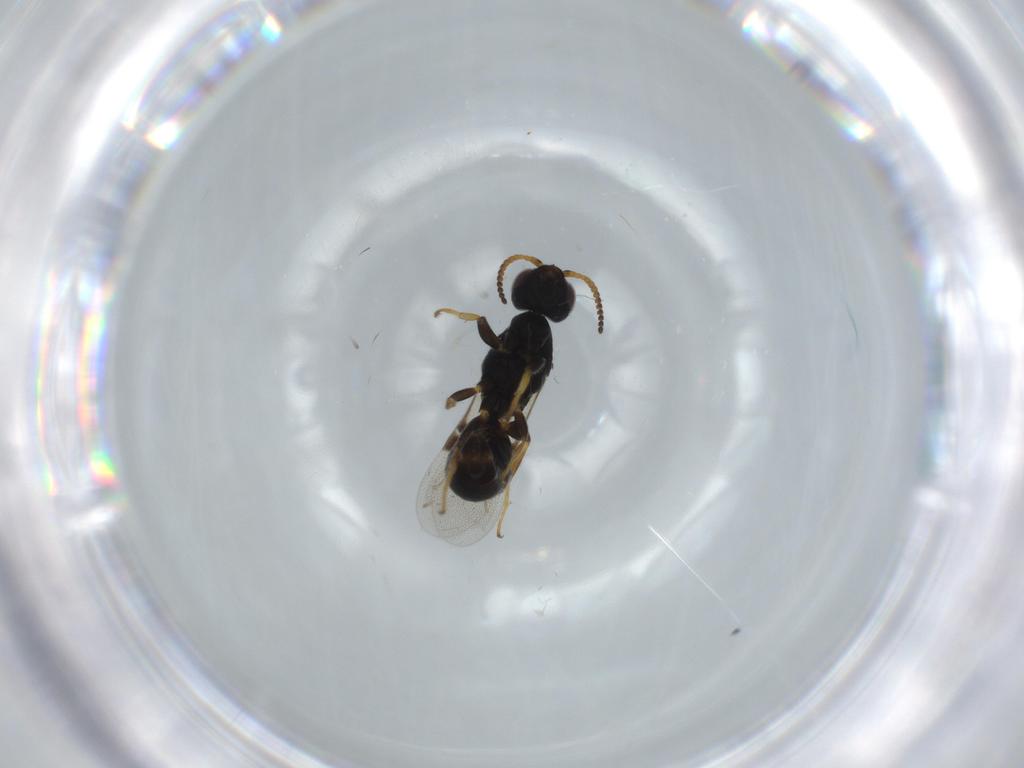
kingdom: Animalia
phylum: Arthropoda
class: Insecta
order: Hymenoptera
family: Bethylidae
